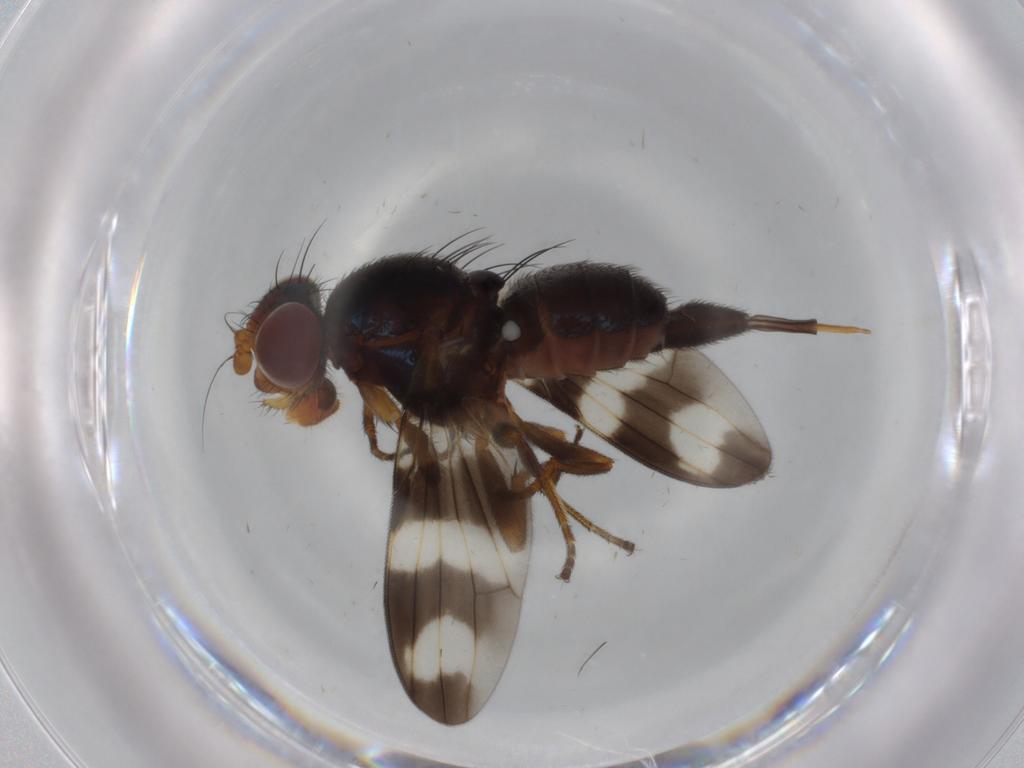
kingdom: Animalia
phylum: Arthropoda
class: Insecta
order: Diptera
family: Ulidiidae
